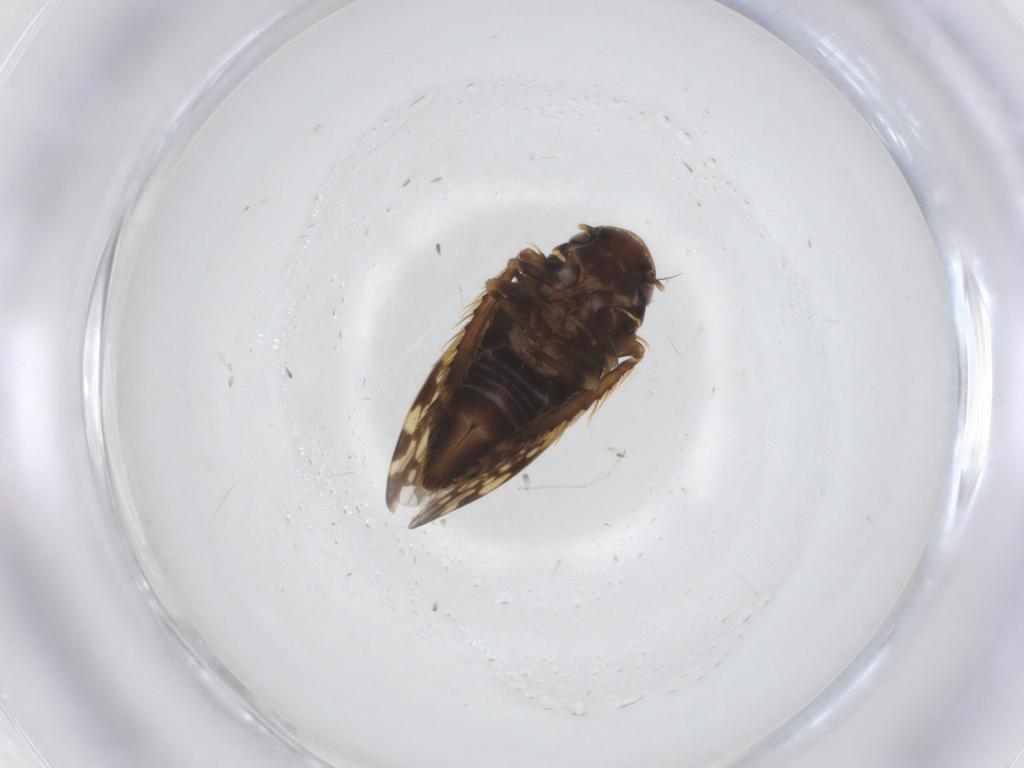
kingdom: Animalia
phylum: Arthropoda
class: Insecta
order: Hemiptera
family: Cicadellidae
